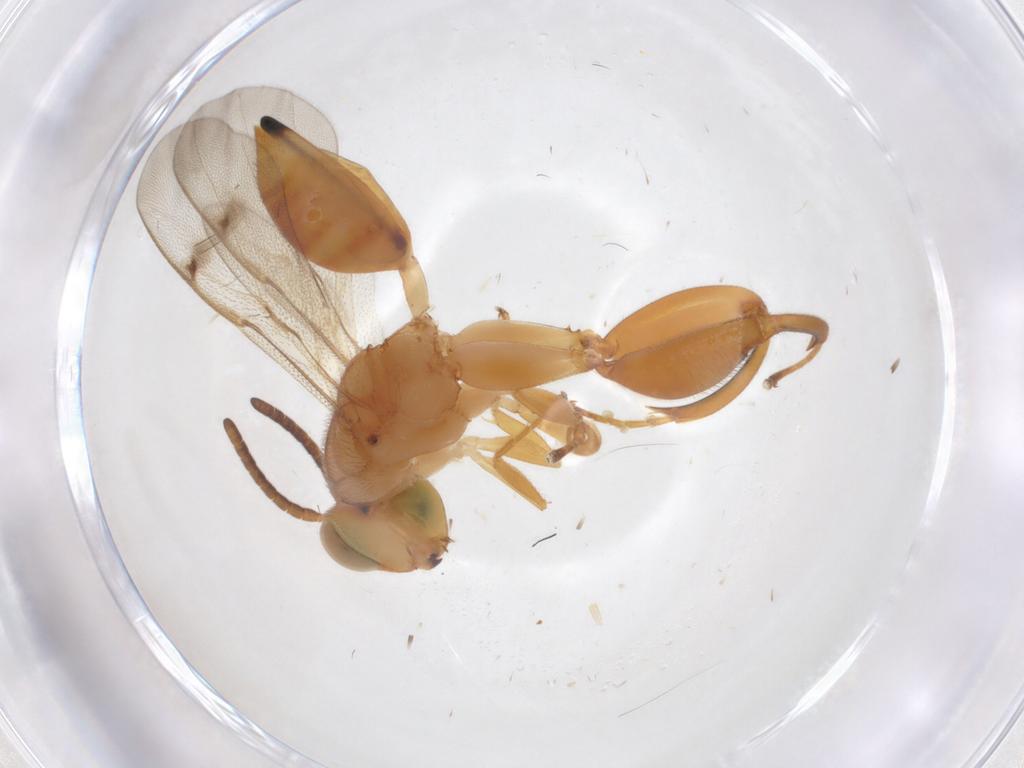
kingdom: Animalia
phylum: Arthropoda
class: Insecta
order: Hymenoptera
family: Chalcididae
